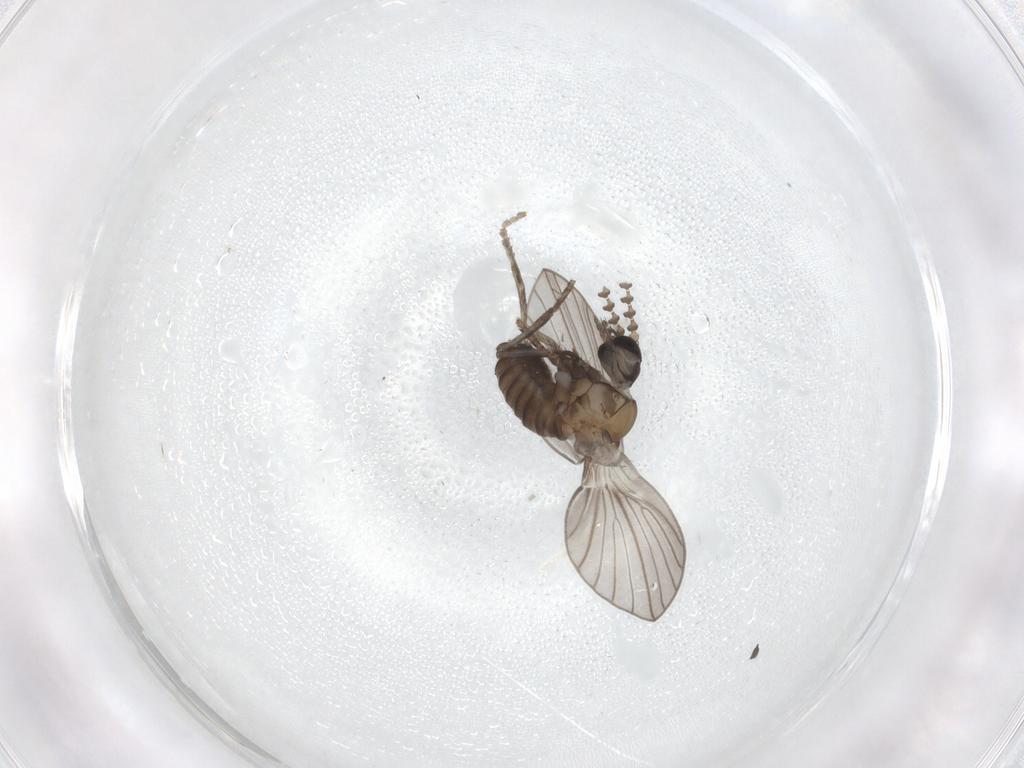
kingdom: Animalia
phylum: Arthropoda
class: Insecta
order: Diptera
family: Psychodidae
